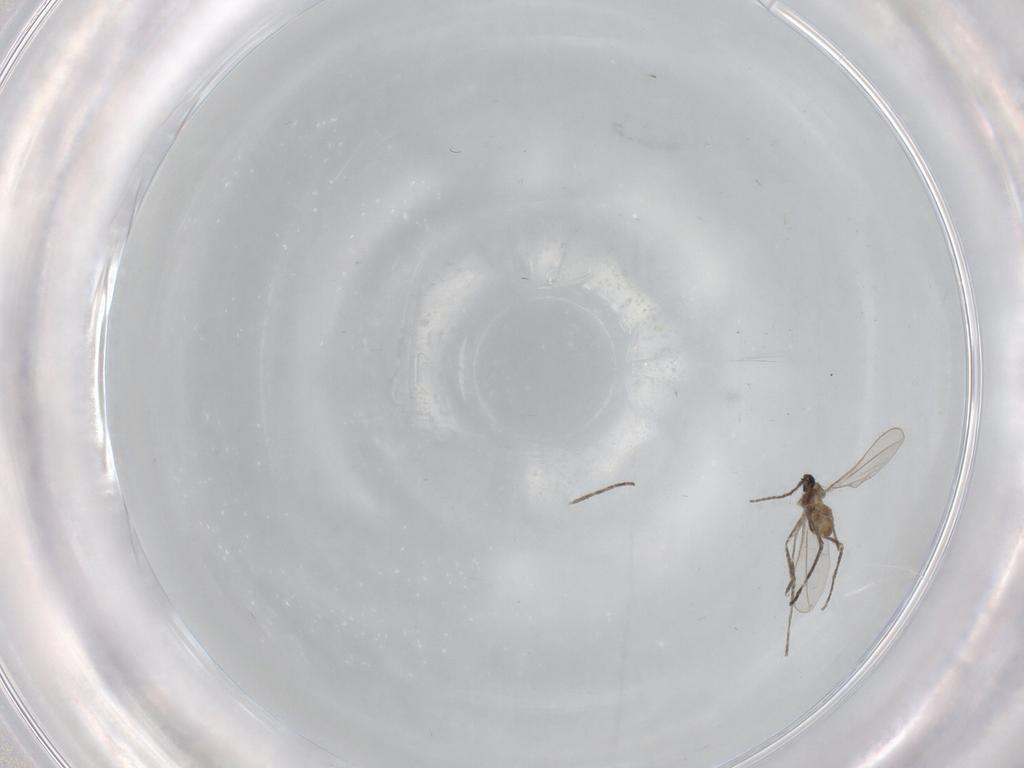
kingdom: Animalia
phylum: Arthropoda
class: Insecta
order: Diptera
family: Cecidomyiidae
